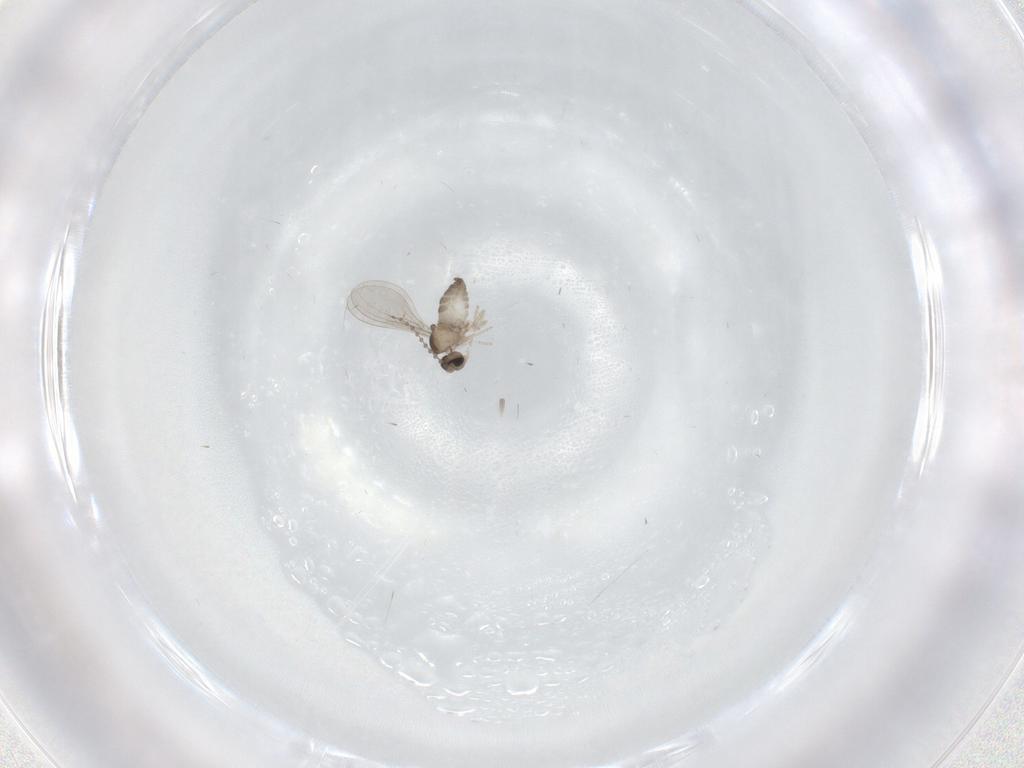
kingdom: Animalia
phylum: Arthropoda
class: Insecta
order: Diptera
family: Cecidomyiidae
